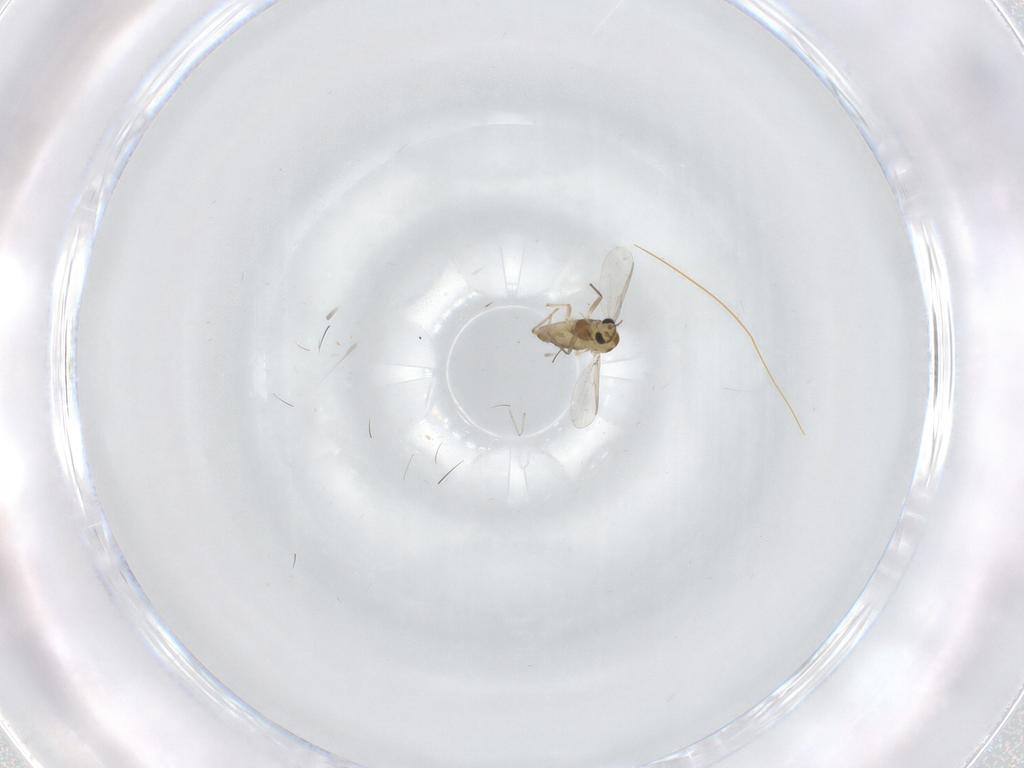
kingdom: Animalia
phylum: Arthropoda
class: Insecta
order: Diptera
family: Chironomidae
